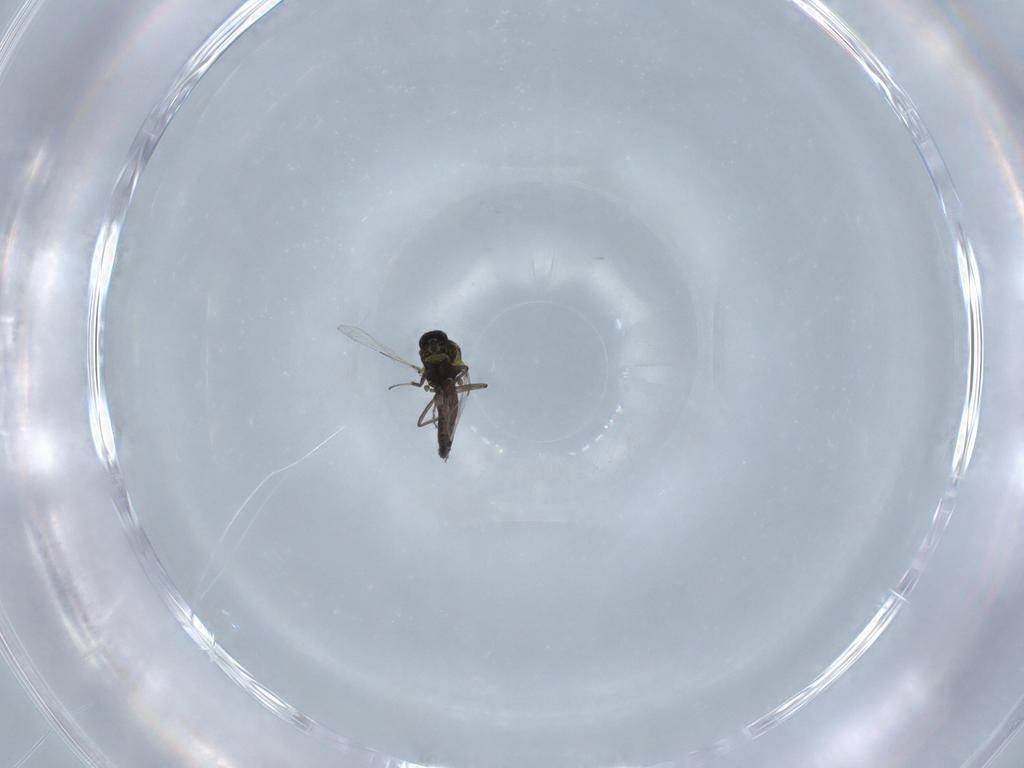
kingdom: Animalia
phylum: Arthropoda
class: Insecta
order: Diptera
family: Ceratopogonidae
